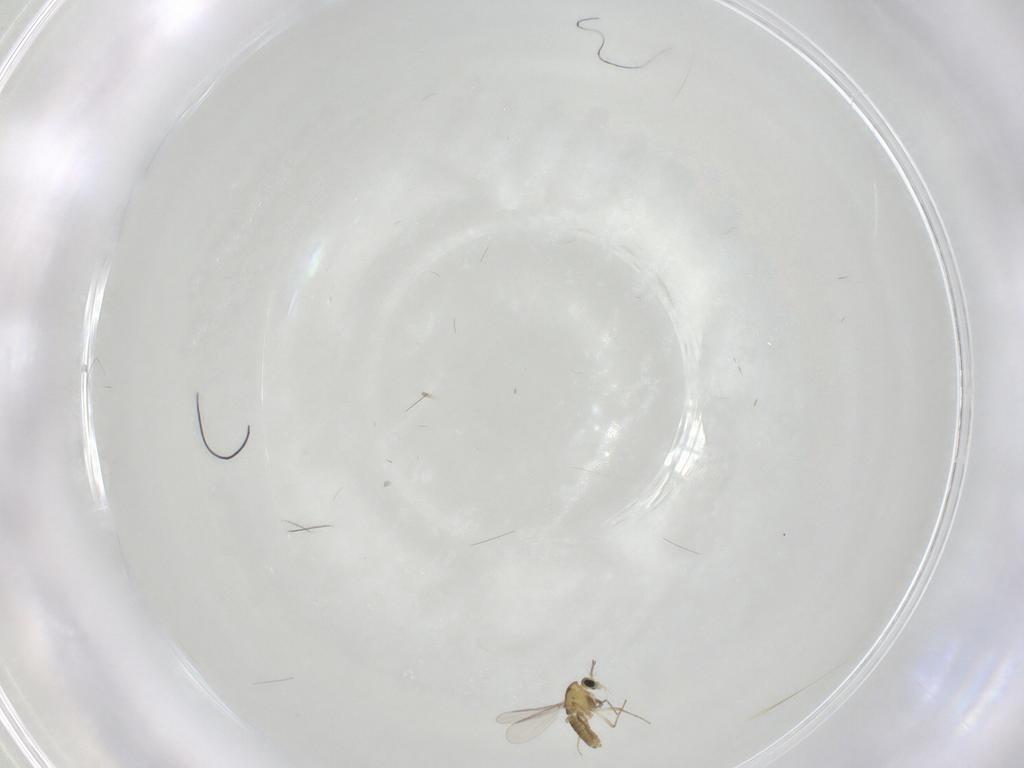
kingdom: Animalia
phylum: Arthropoda
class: Insecta
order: Diptera
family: Chironomidae
